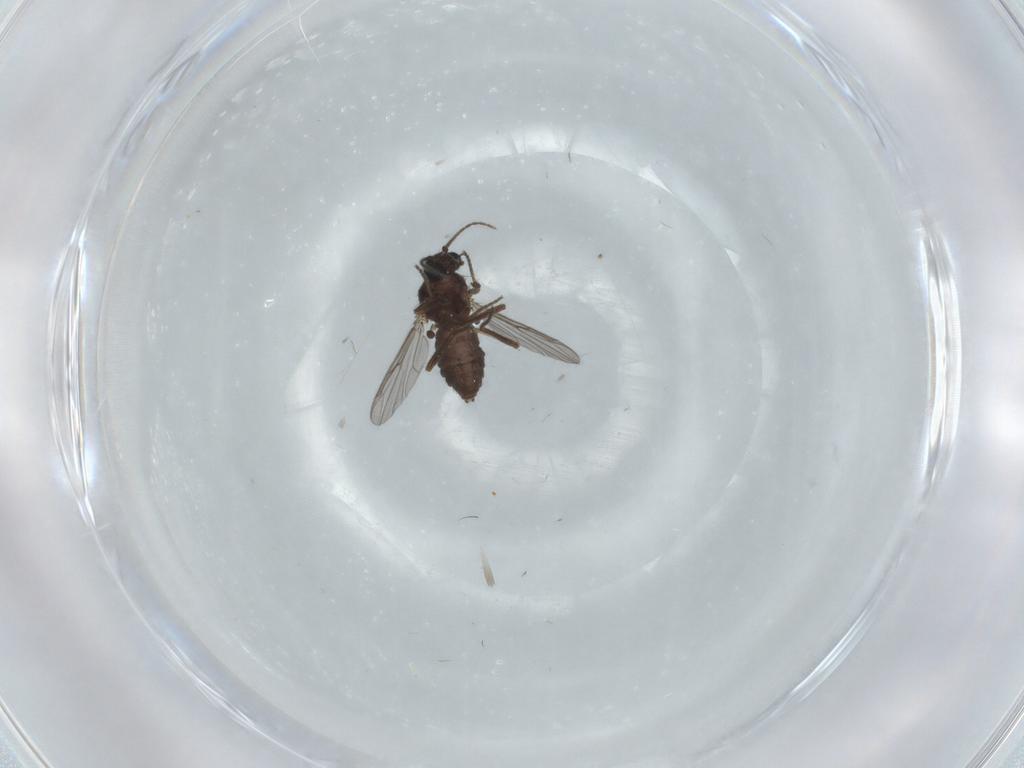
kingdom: Animalia
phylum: Arthropoda
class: Insecta
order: Diptera
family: Ceratopogonidae
